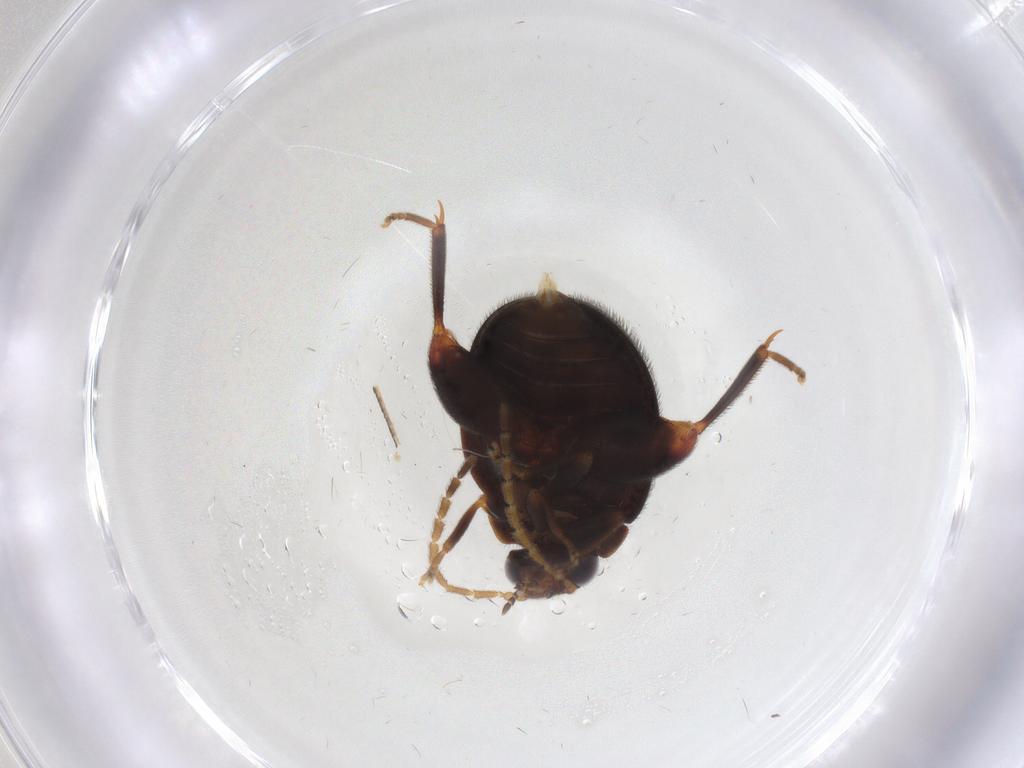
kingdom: Animalia
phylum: Arthropoda
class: Insecta
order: Coleoptera
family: Scirtidae
